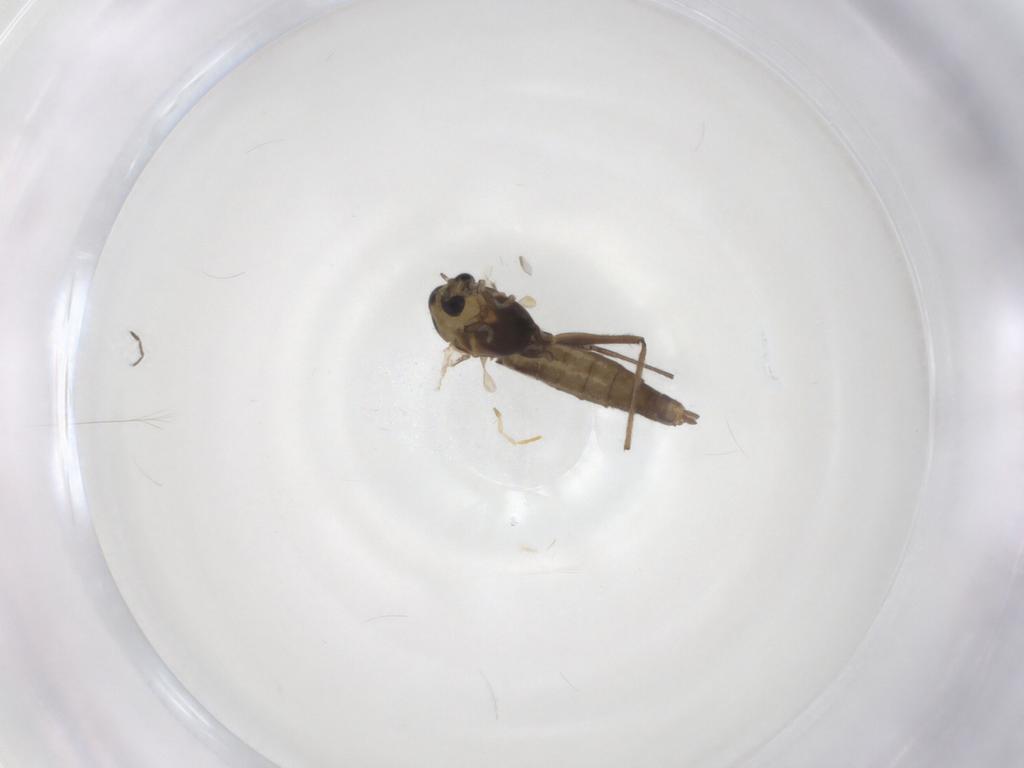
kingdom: Animalia
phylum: Arthropoda
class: Insecta
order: Diptera
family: Chironomidae
